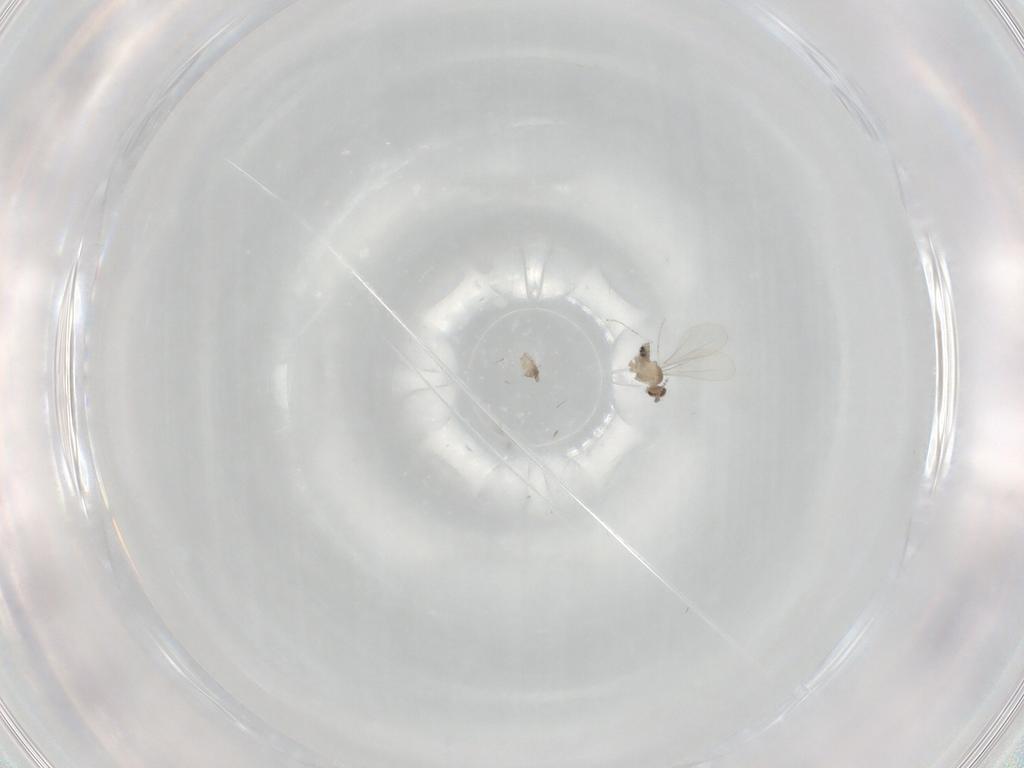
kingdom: Animalia
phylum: Arthropoda
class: Insecta
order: Diptera
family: Cecidomyiidae
